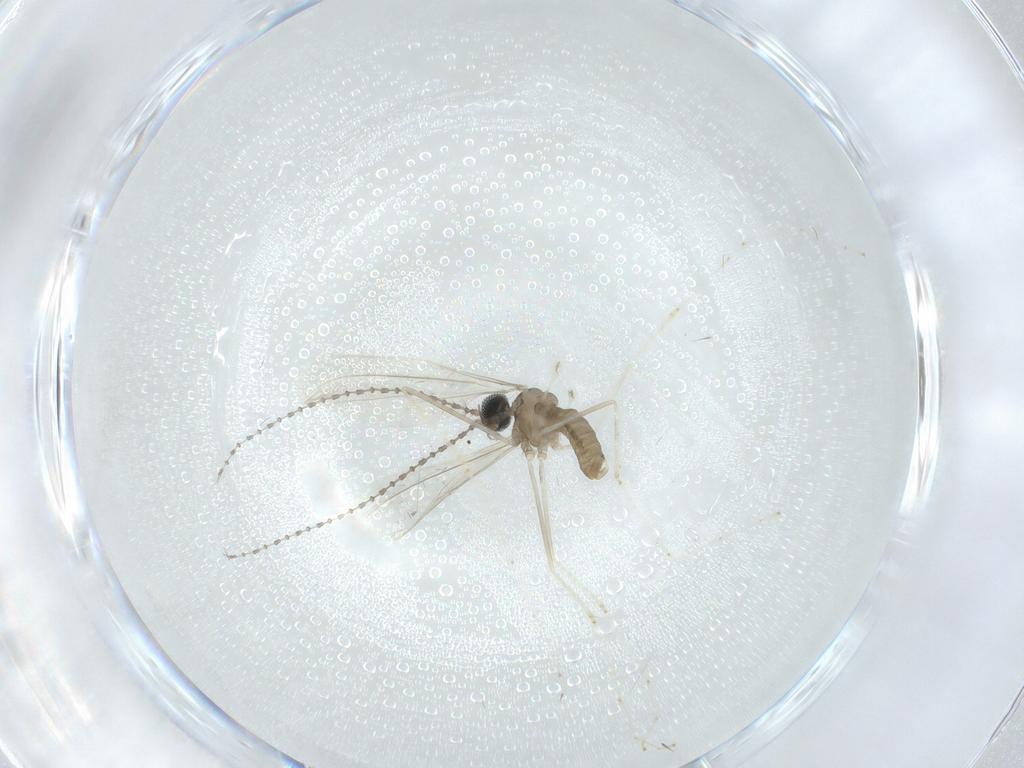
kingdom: Animalia
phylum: Arthropoda
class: Insecta
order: Diptera
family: Cecidomyiidae
